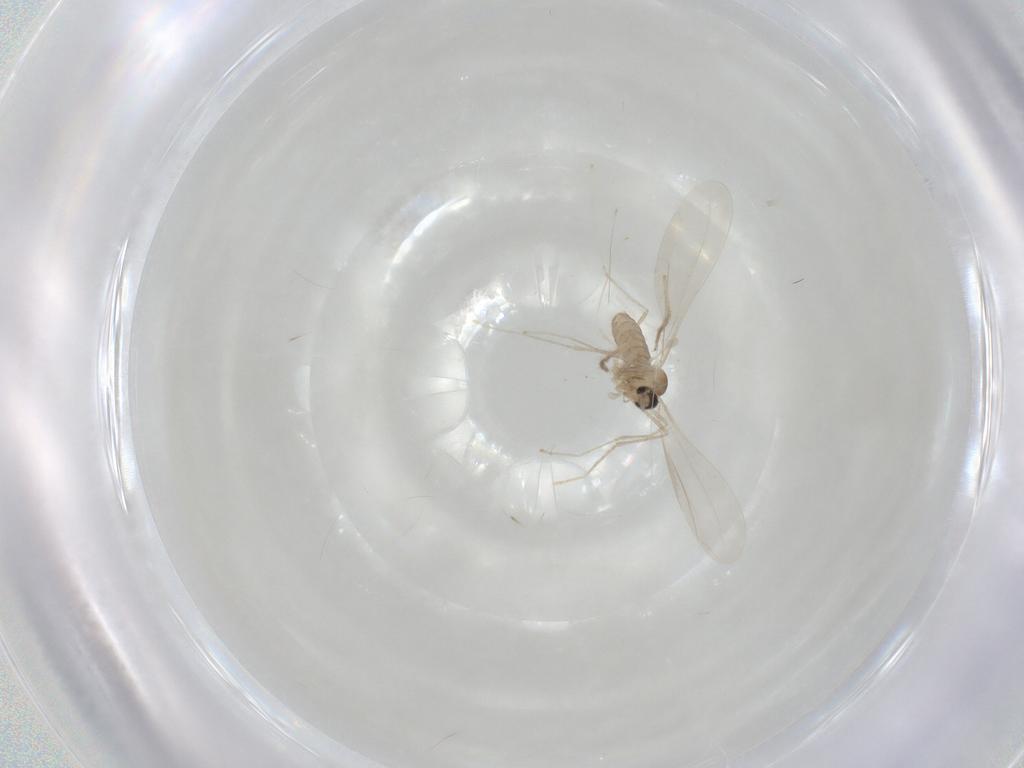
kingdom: Animalia
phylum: Arthropoda
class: Insecta
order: Diptera
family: Cecidomyiidae
